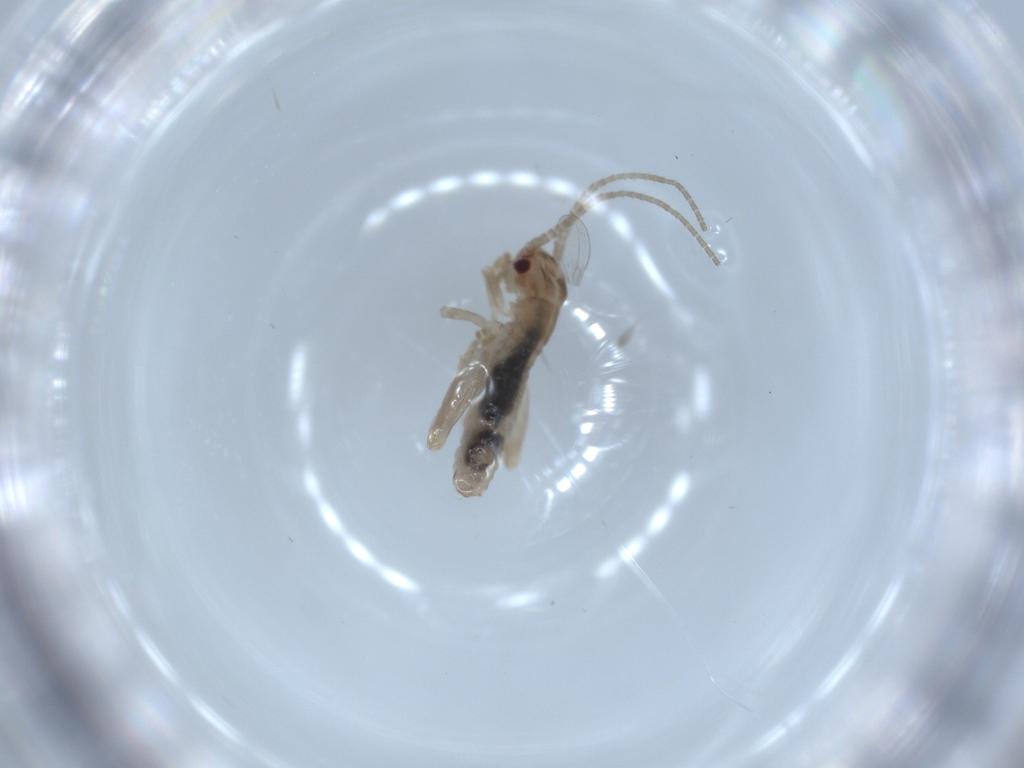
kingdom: Animalia
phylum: Arthropoda
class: Insecta
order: Orthoptera
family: Mogoplistidae
